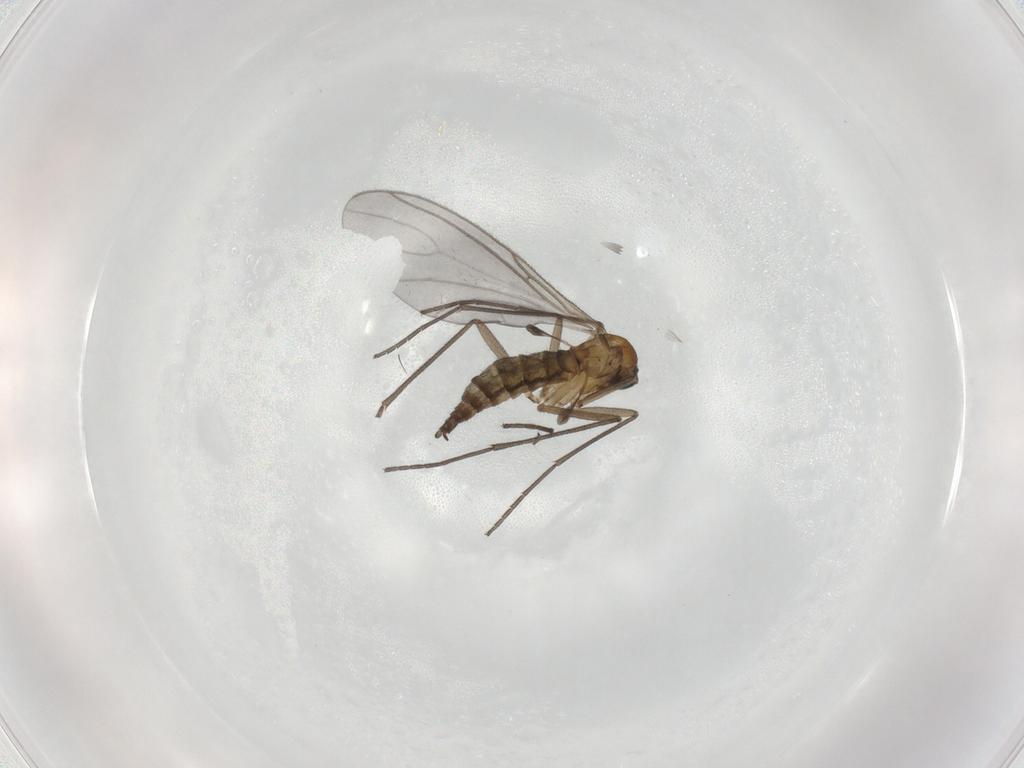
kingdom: Animalia
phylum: Arthropoda
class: Insecta
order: Diptera
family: Sciaridae
